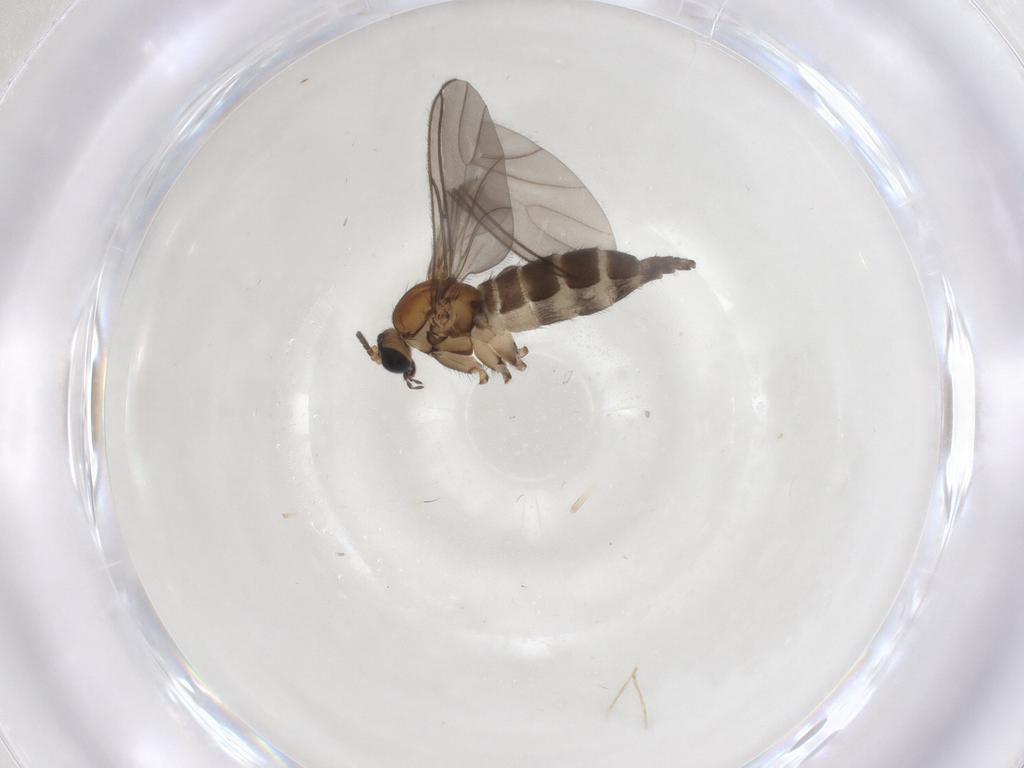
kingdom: Animalia
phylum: Arthropoda
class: Insecta
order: Diptera
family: Sciaridae
